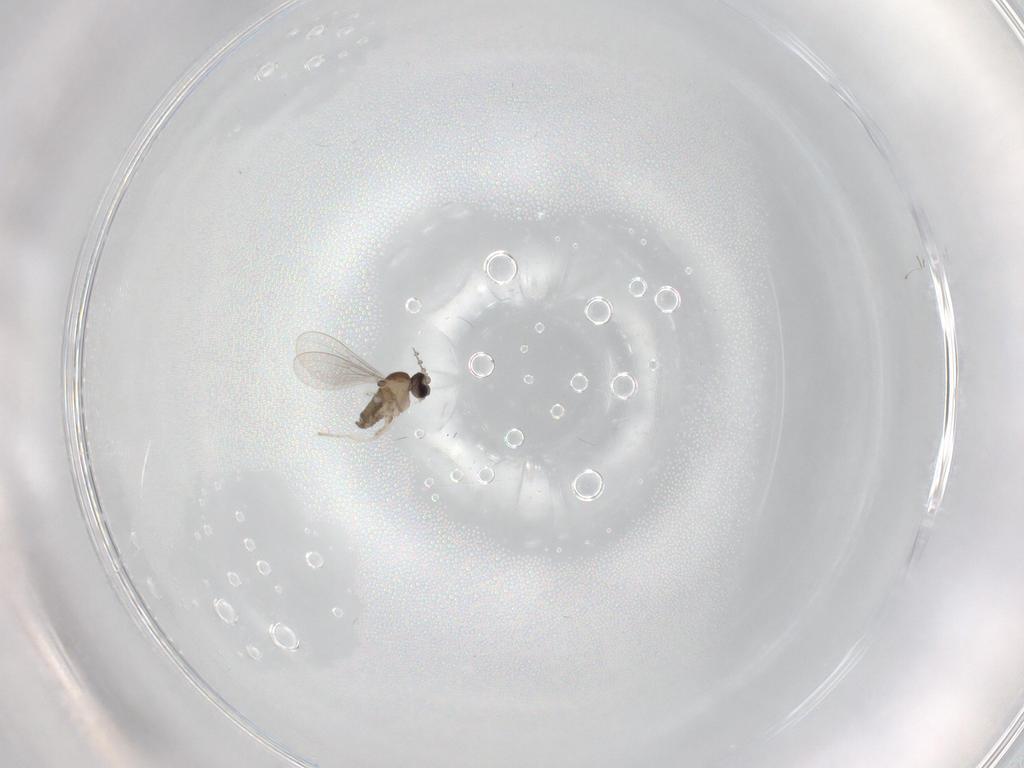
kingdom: Animalia
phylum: Arthropoda
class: Insecta
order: Diptera
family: Cecidomyiidae
